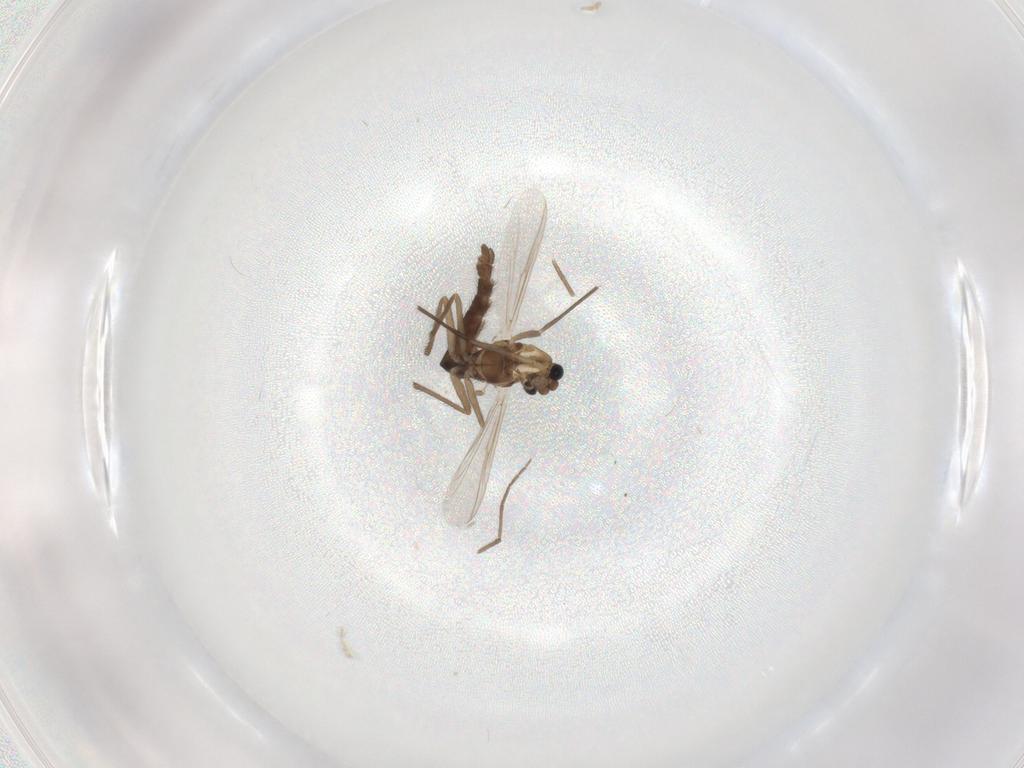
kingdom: Animalia
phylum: Arthropoda
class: Insecta
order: Diptera
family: Chironomidae
